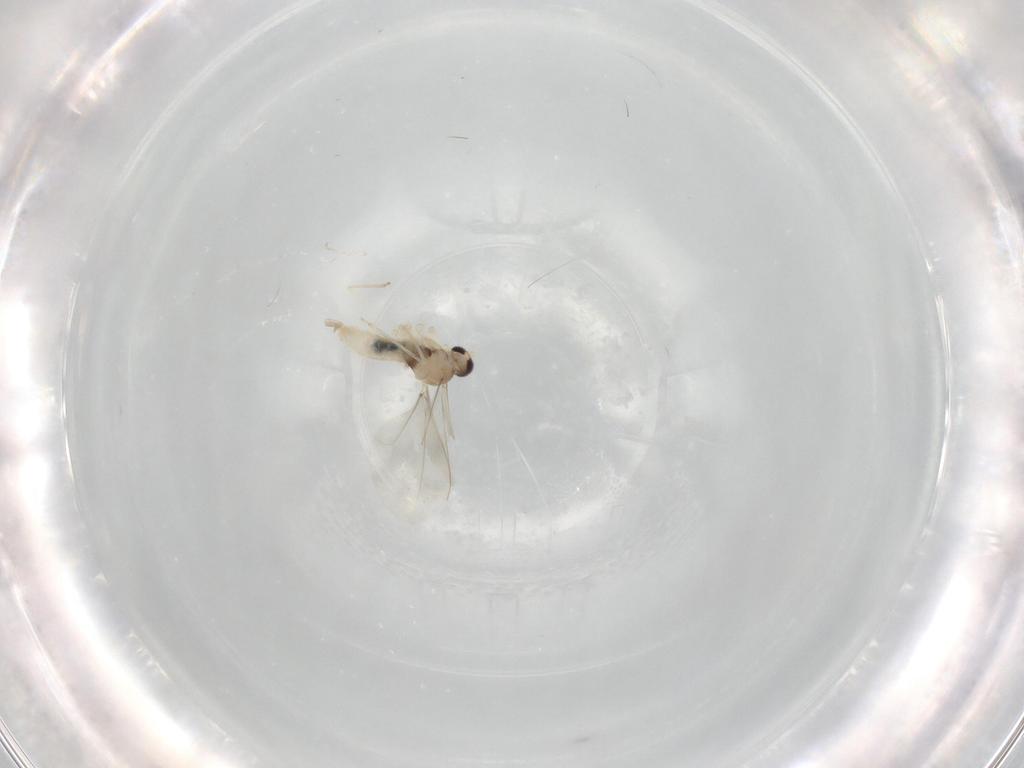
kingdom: Animalia
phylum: Arthropoda
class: Insecta
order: Diptera
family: Cecidomyiidae
